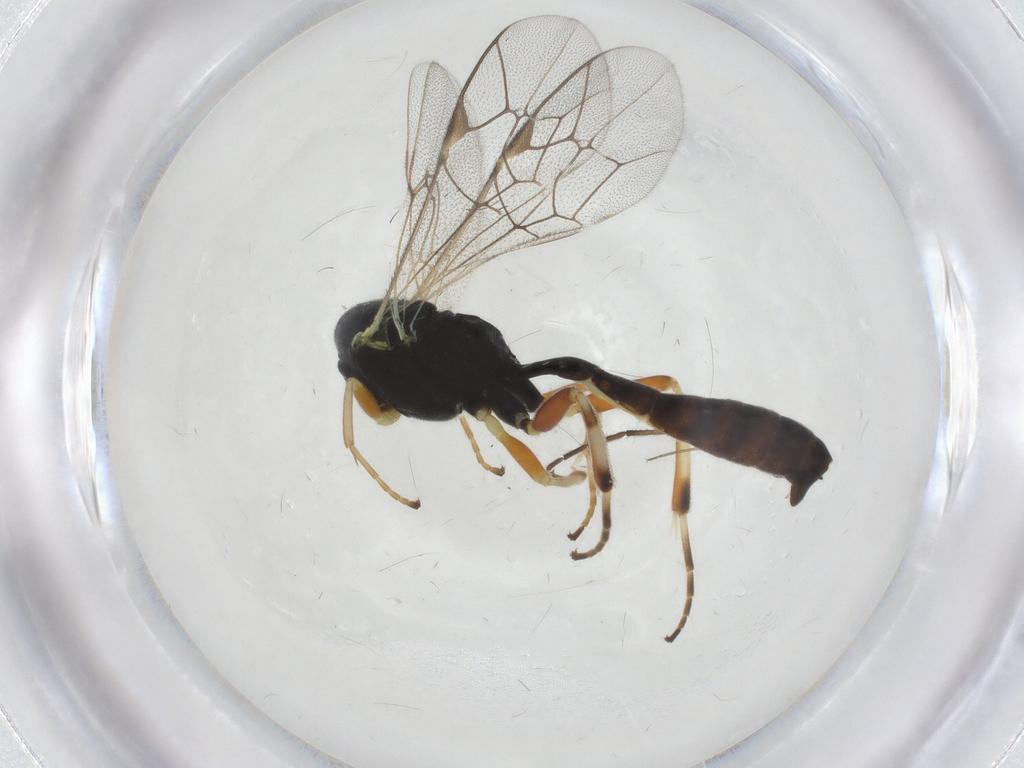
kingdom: Animalia
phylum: Arthropoda
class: Insecta
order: Hymenoptera
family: Ichneumonidae
